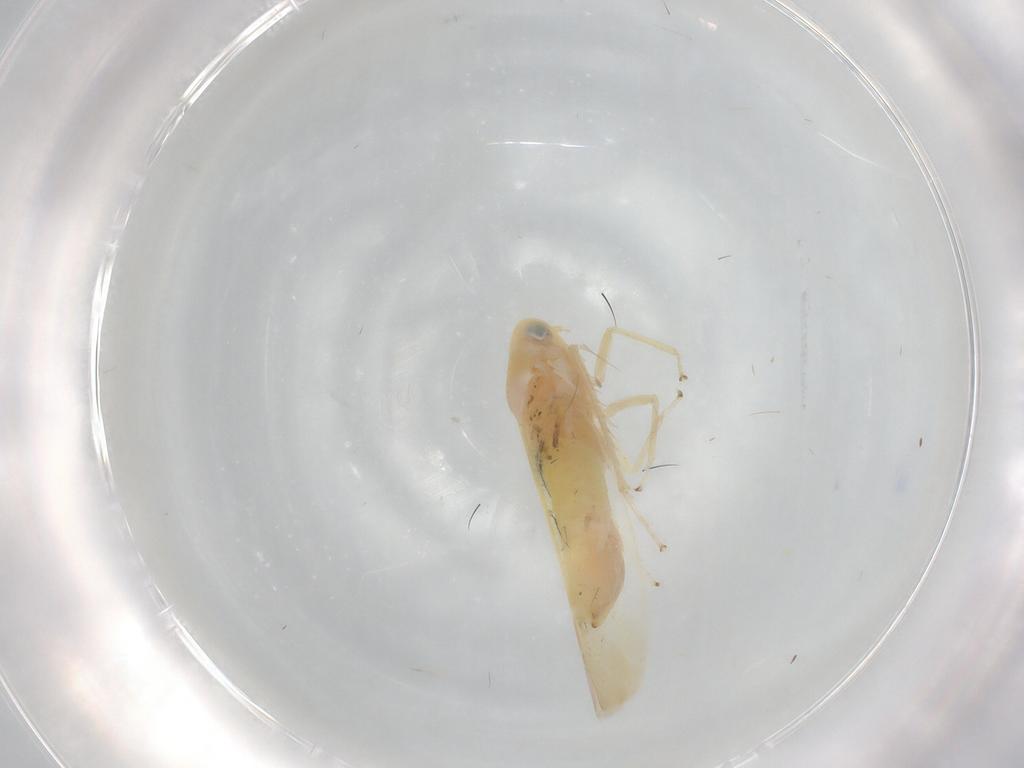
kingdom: Animalia
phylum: Arthropoda
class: Insecta
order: Hemiptera
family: Cicadellidae
